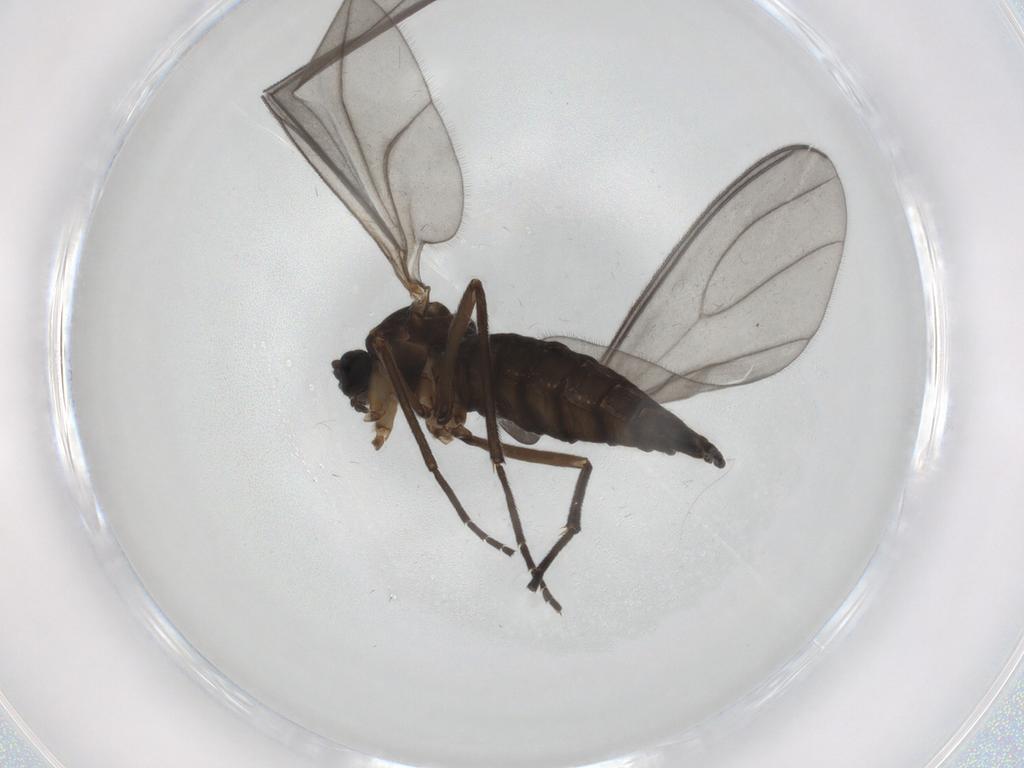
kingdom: Animalia
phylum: Arthropoda
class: Insecta
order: Diptera
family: Sciaridae
